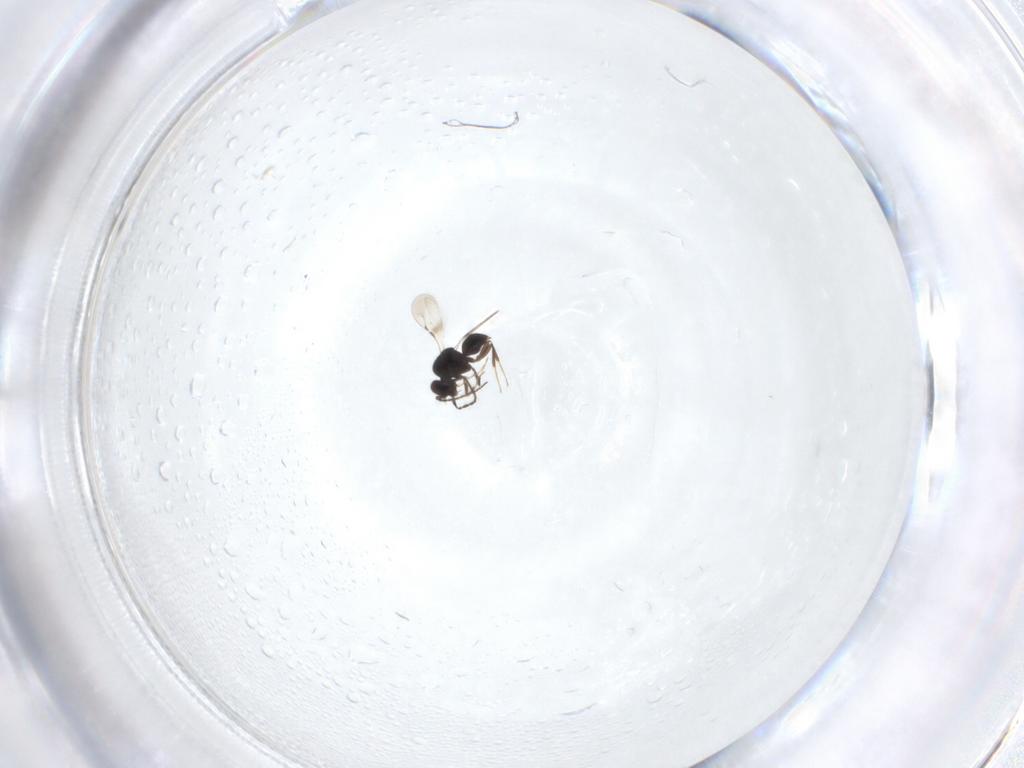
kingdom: Animalia
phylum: Arthropoda
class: Insecta
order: Hymenoptera
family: Ceraphronidae
